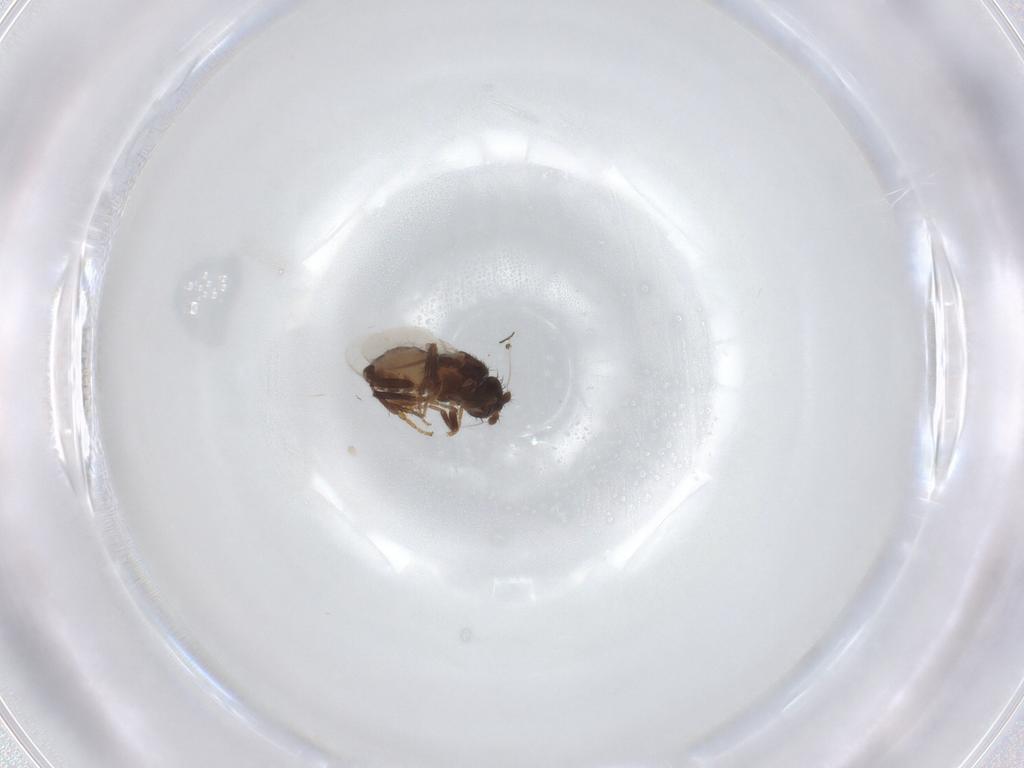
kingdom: Animalia
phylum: Arthropoda
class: Insecta
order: Diptera
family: Sphaeroceridae
